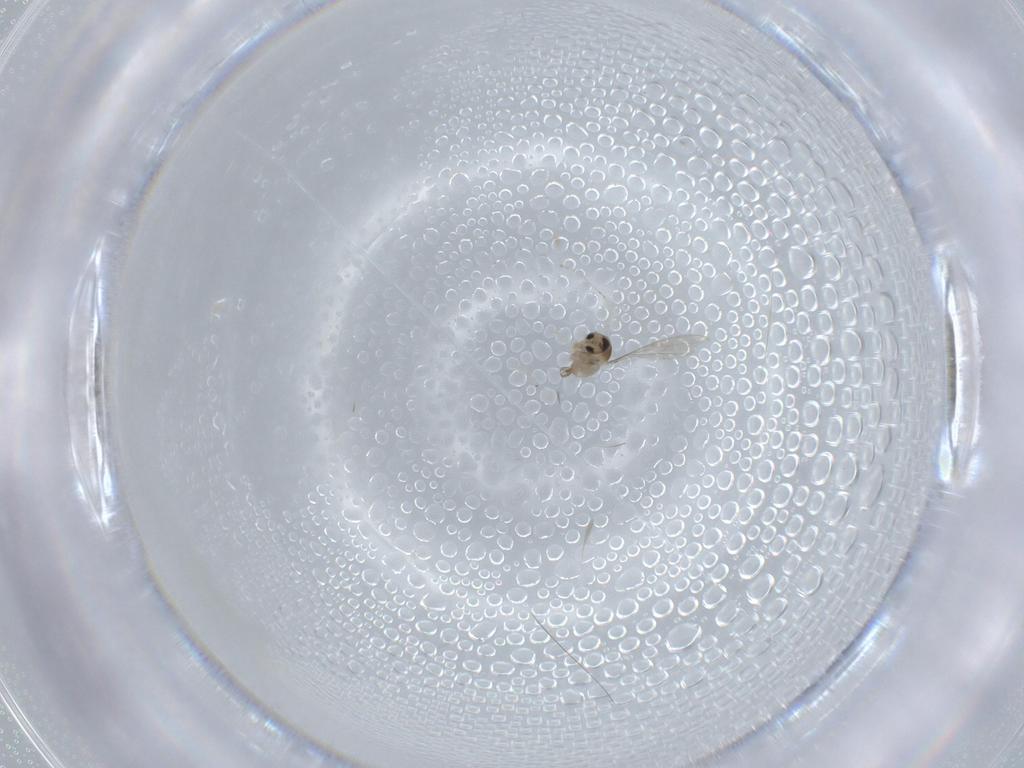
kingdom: Animalia
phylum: Arthropoda
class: Insecta
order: Diptera
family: Cecidomyiidae
